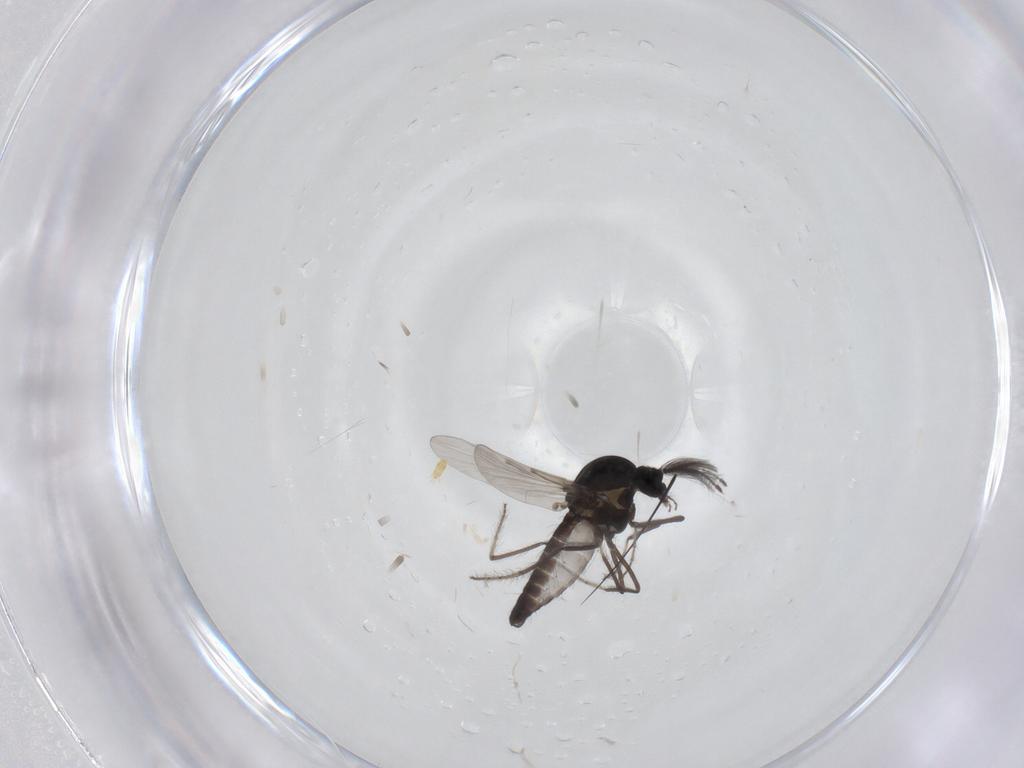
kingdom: Animalia
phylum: Arthropoda
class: Insecta
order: Diptera
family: Ceratopogonidae
